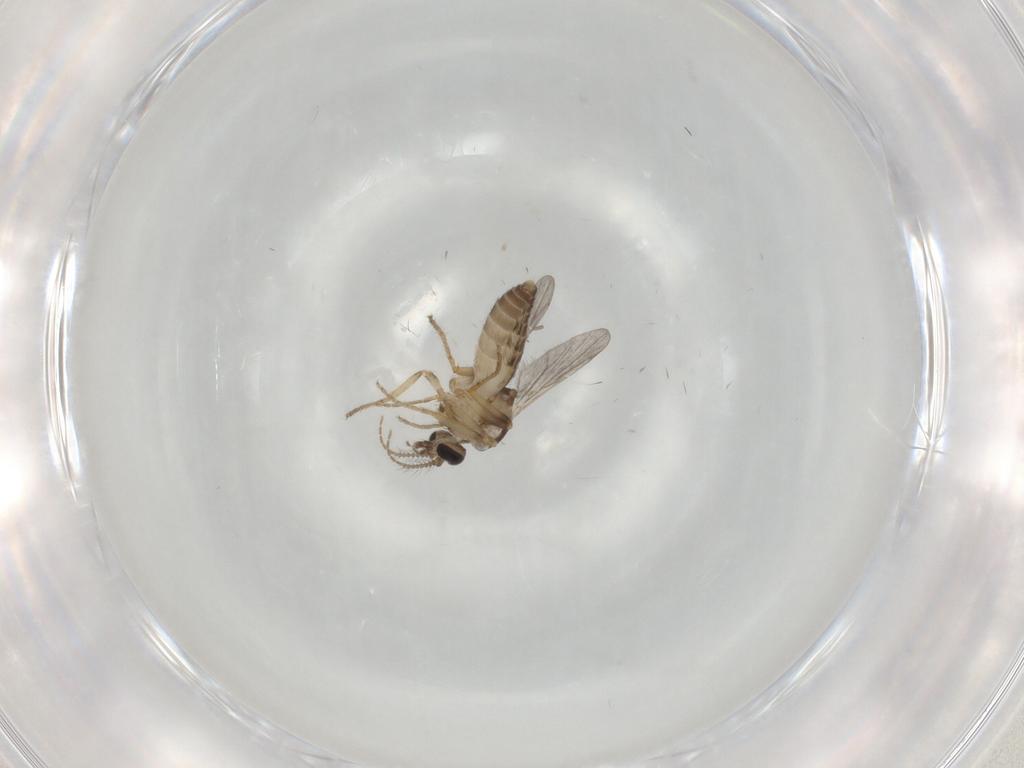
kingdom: Animalia
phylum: Arthropoda
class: Insecta
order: Diptera
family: Ceratopogonidae
